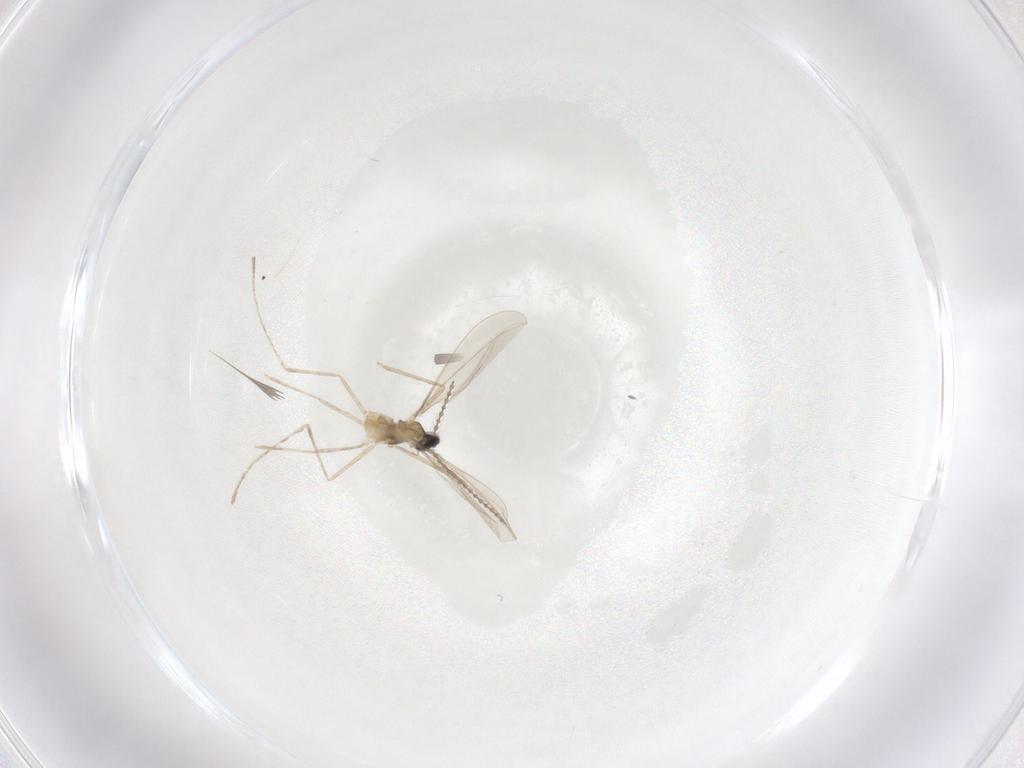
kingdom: Animalia
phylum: Arthropoda
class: Insecta
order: Diptera
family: Cecidomyiidae
